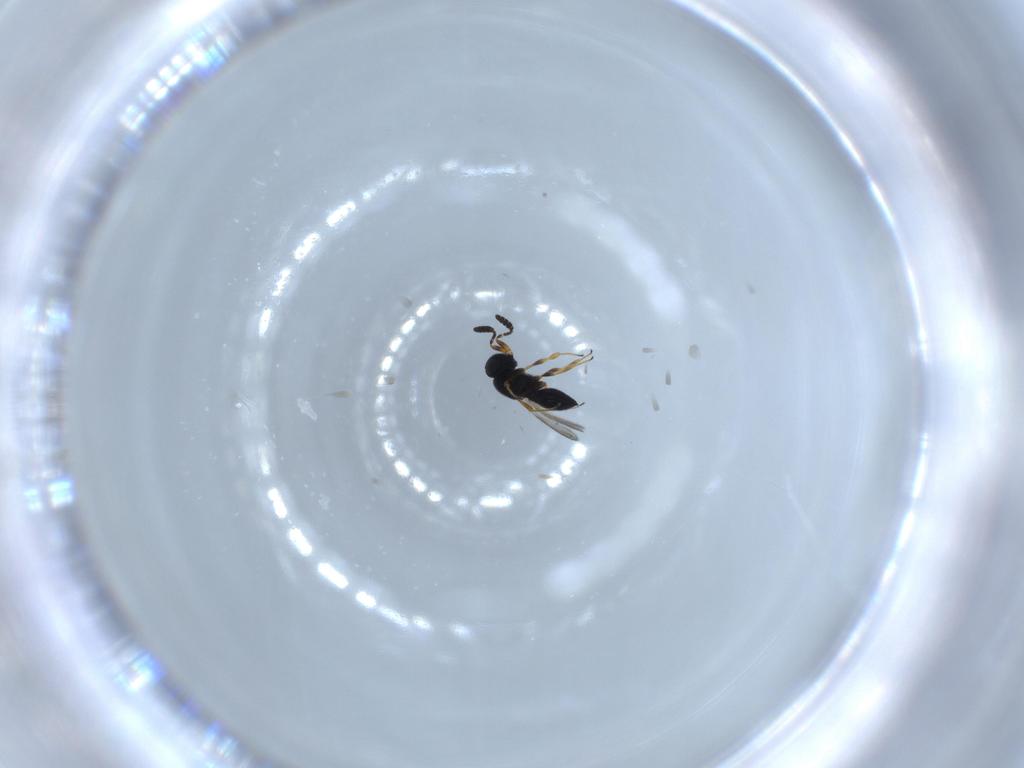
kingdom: Animalia
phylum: Arthropoda
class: Insecta
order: Hymenoptera
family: Scelionidae
